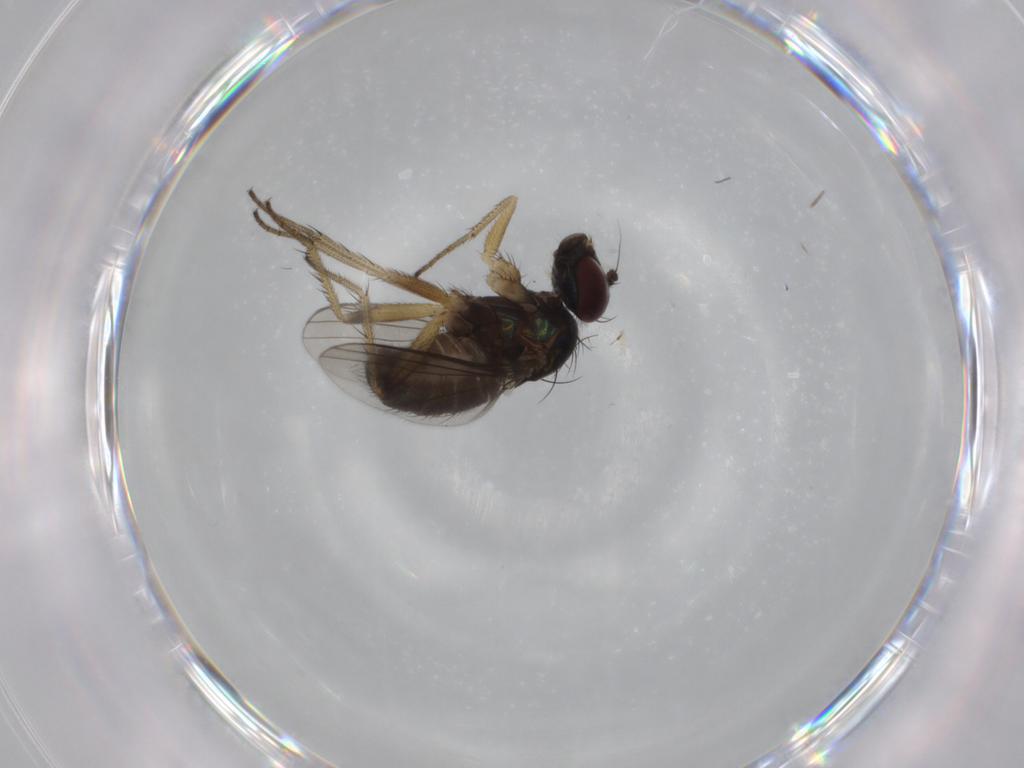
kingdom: Animalia
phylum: Arthropoda
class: Insecta
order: Diptera
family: Dolichopodidae
